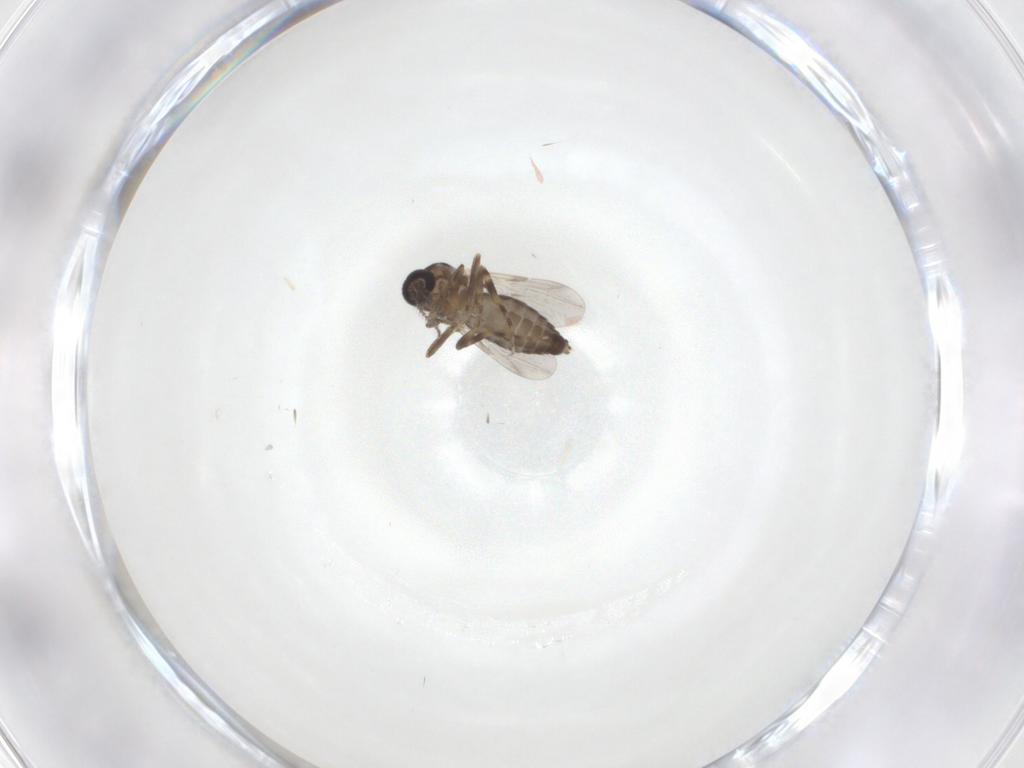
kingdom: Animalia
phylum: Arthropoda
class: Insecta
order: Diptera
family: Ceratopogonidae
